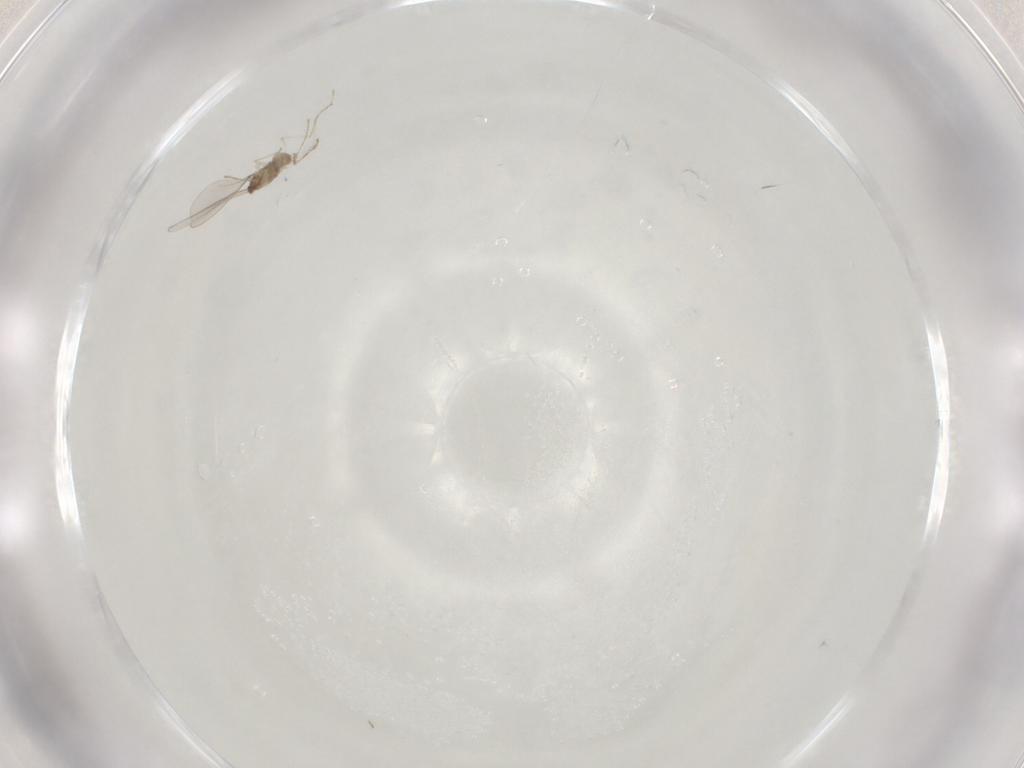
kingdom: Animalia
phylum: Arthropoda
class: Insecta
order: Diptera
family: Cecidomyiidae
